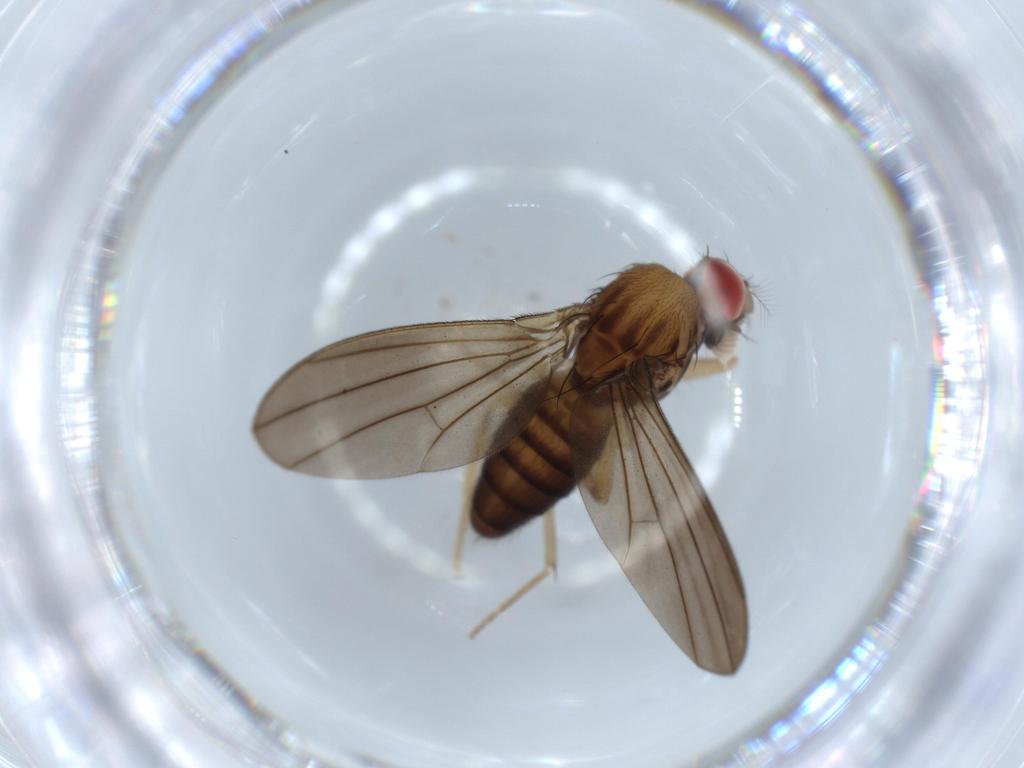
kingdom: Animalia
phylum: Arthropoda
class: Insecta
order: Diptera
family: Drosophilidae
